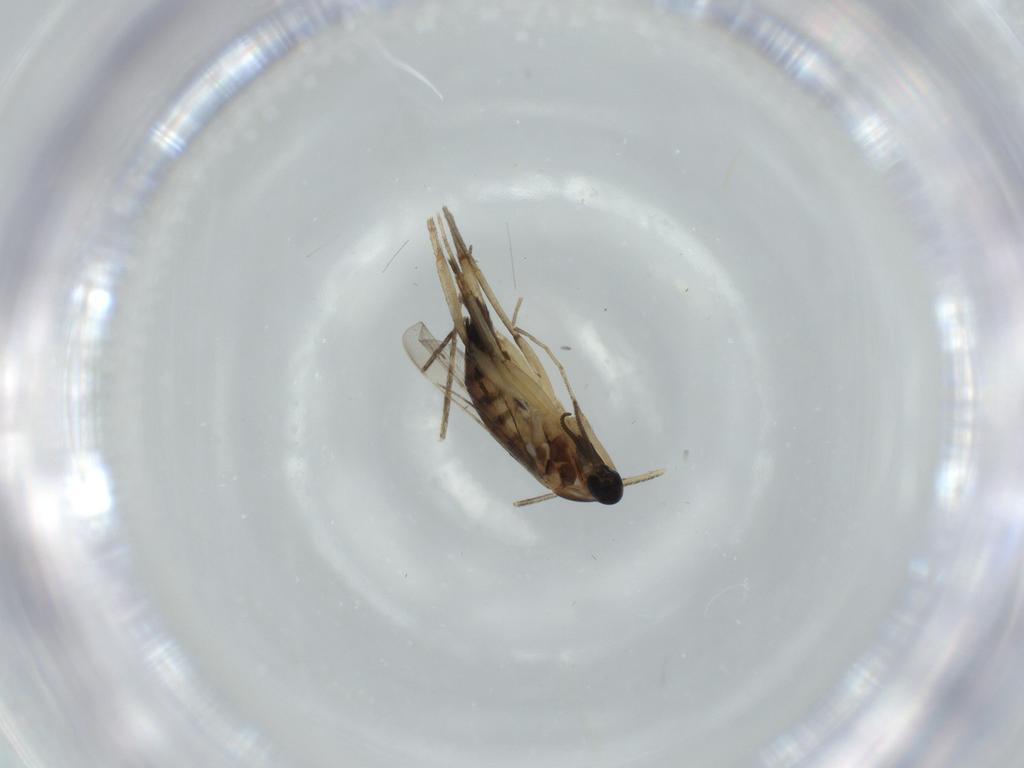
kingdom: Animalia
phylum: Arthropoda
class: Insecta
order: Diptera
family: Cecidomyiidae
